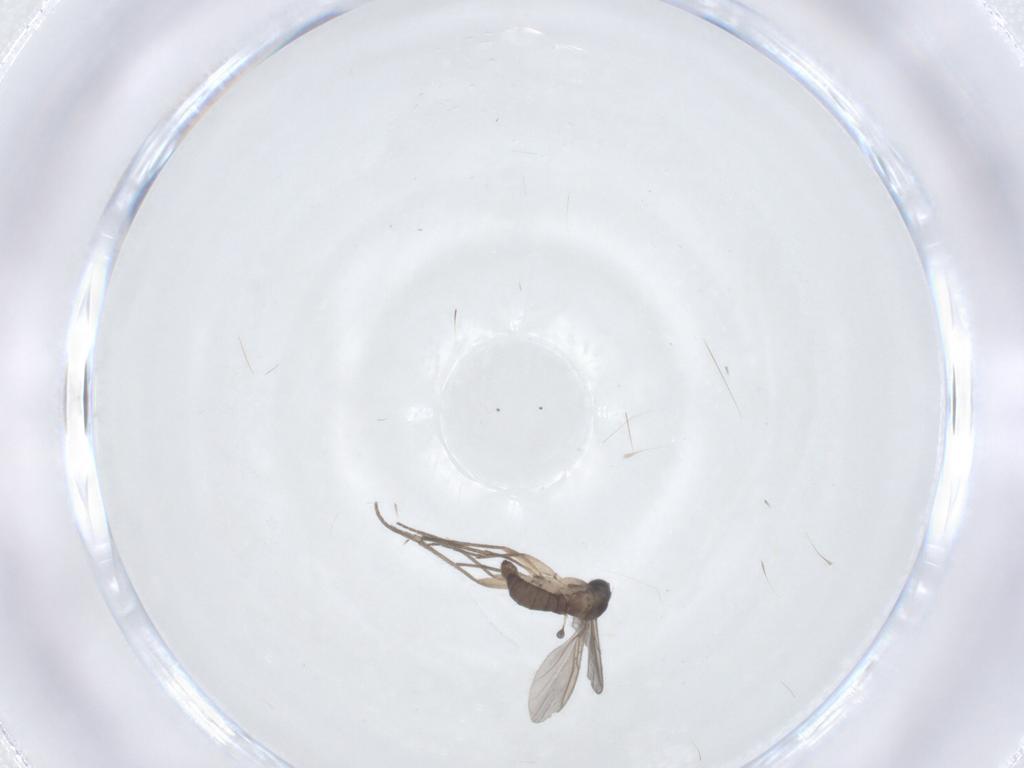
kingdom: Animalia
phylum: Arthropoda
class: Insecta
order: Diptera
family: Sciaridae
